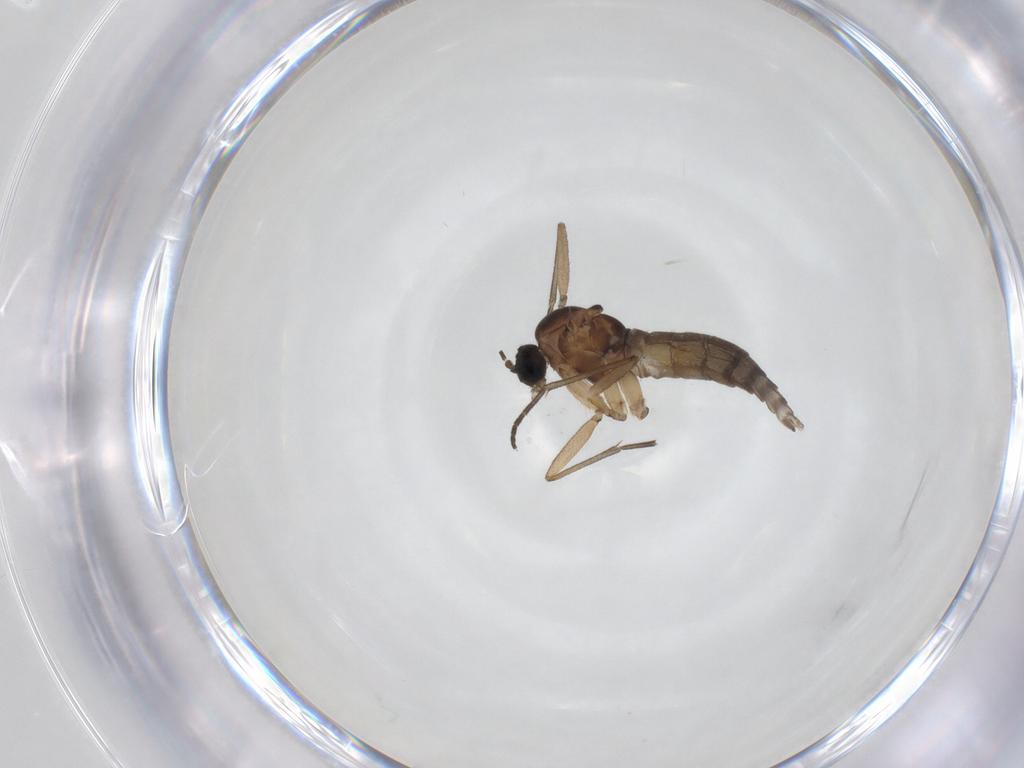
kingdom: Animalia
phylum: Arthropoda
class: Insecta
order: Diptera
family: Sciaridae
